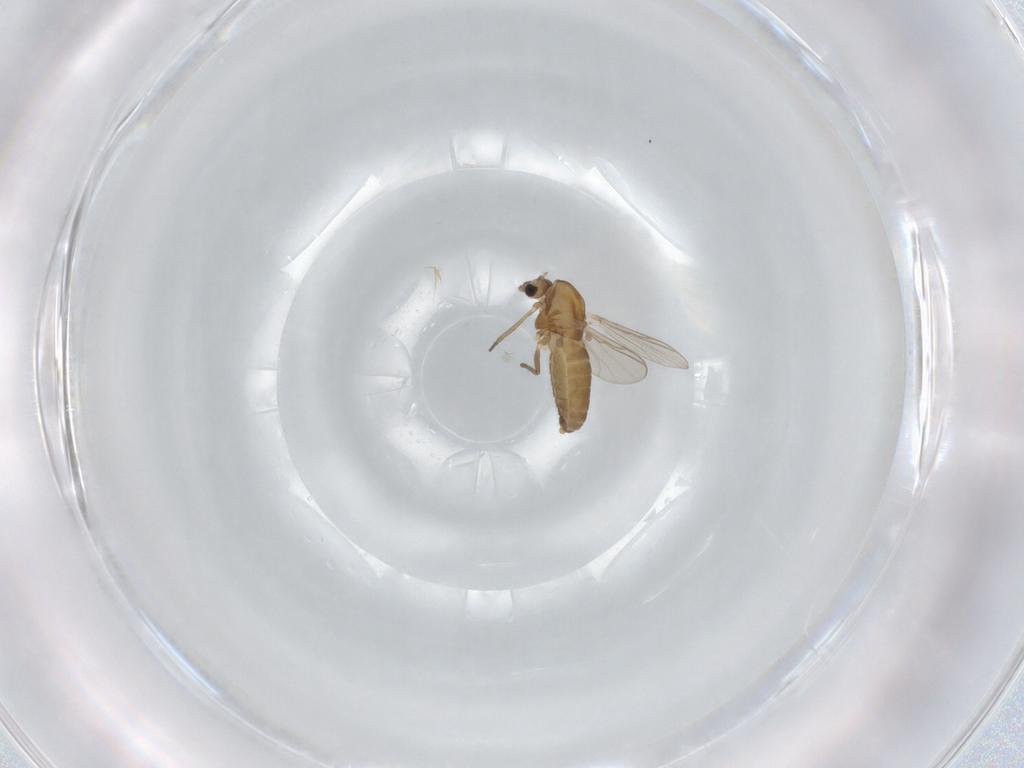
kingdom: Animalia
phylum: Arthropoda
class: Insecta
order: Diptera
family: Chironomidae
